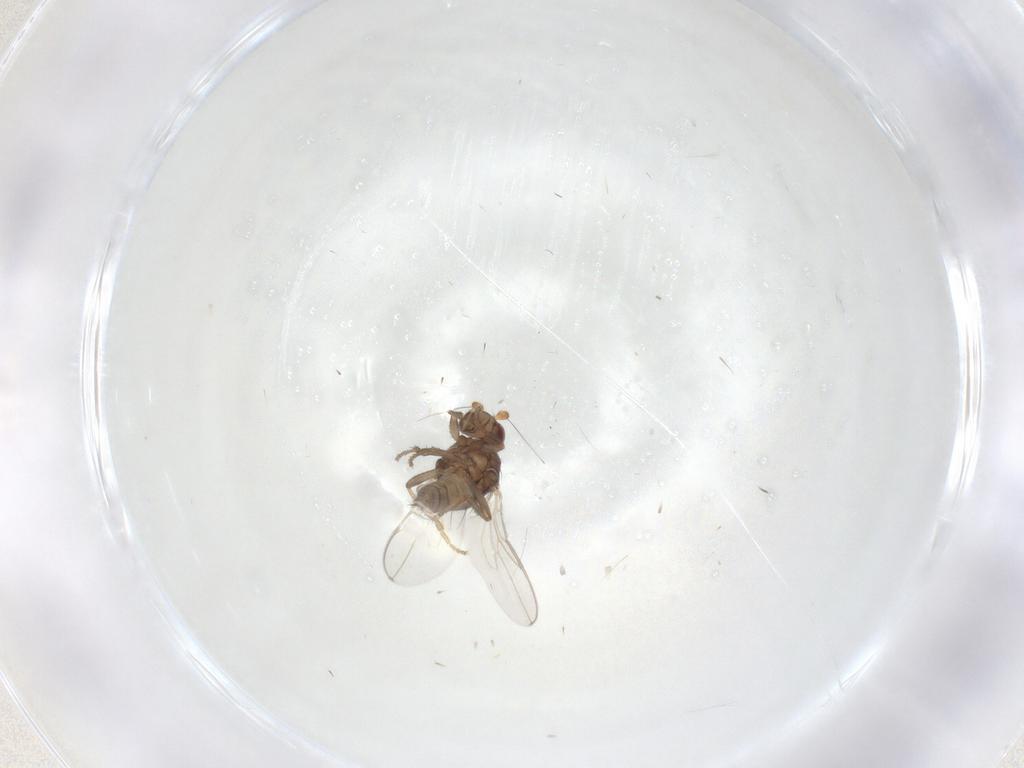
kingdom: Animalia
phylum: Arthropoda
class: Insecta
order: Diptera
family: Sphaeroceridae
